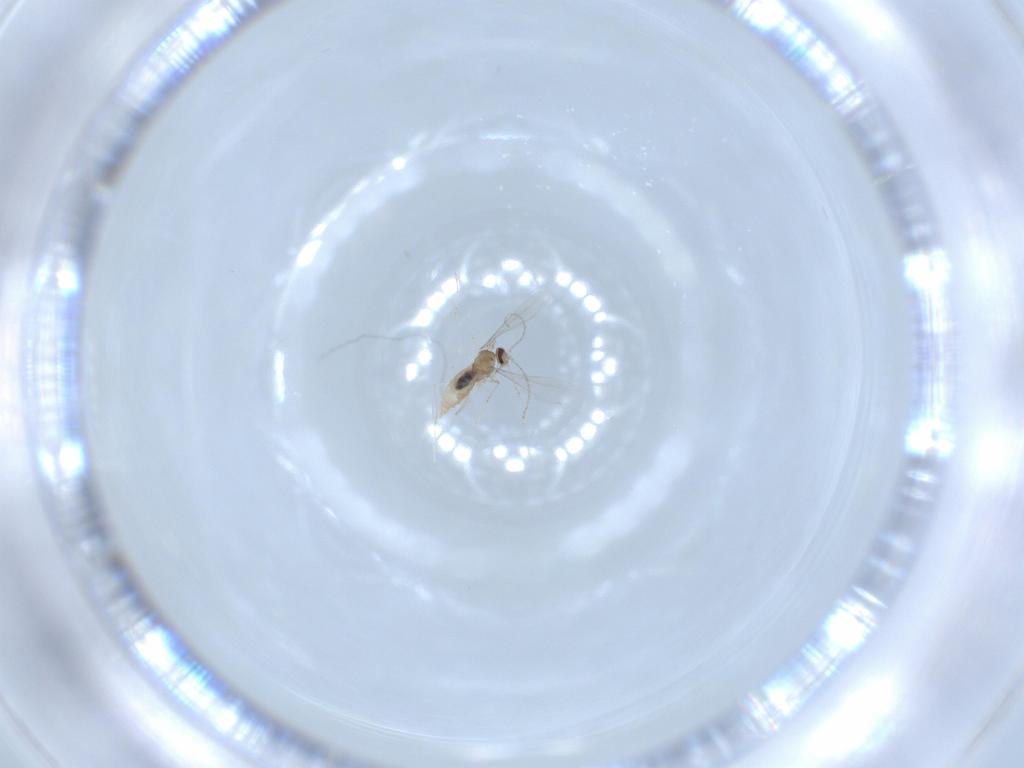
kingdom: Animalia
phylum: Arthropoda
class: Insecta
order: Diptera
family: Cecidomyiidae
